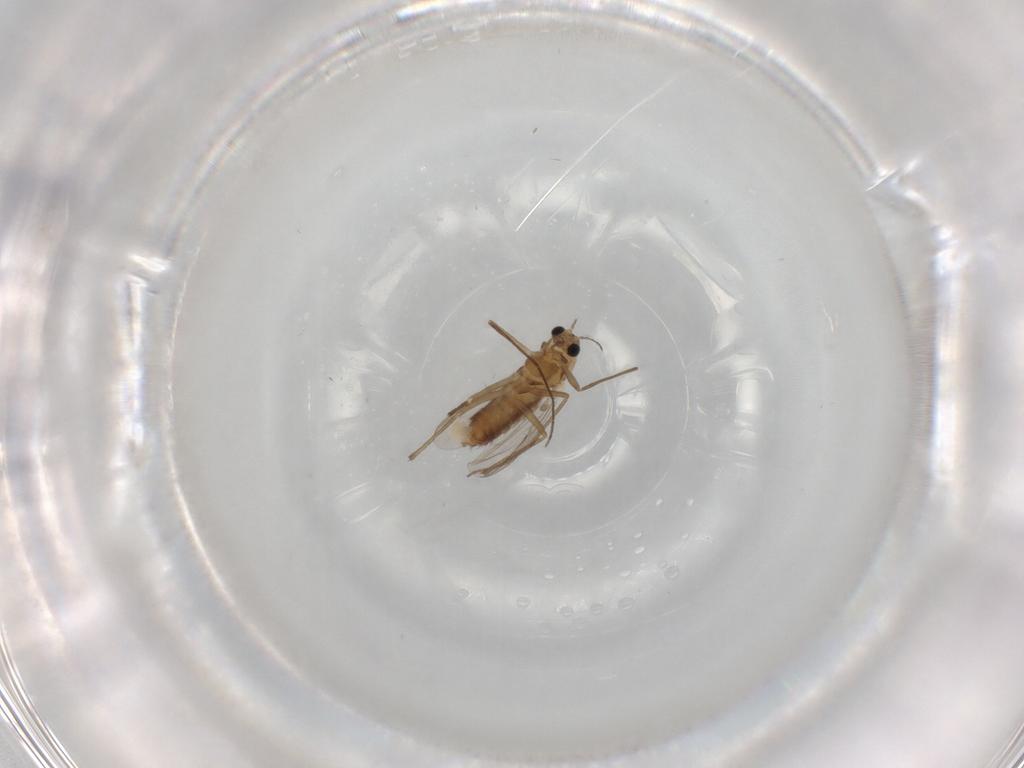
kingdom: Animalia
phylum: Arthropoda
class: Insecta
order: Diptera
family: Chironomidae
